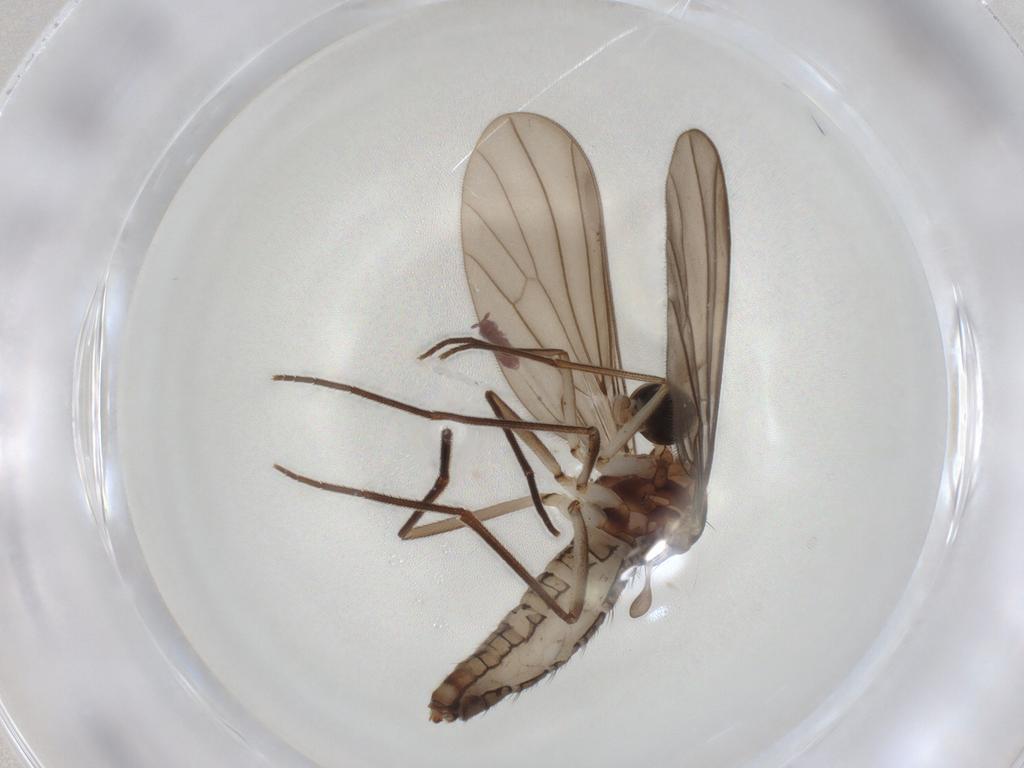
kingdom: Animalia
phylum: Arthropoda
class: Insecta
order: Diptera
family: Empididae
